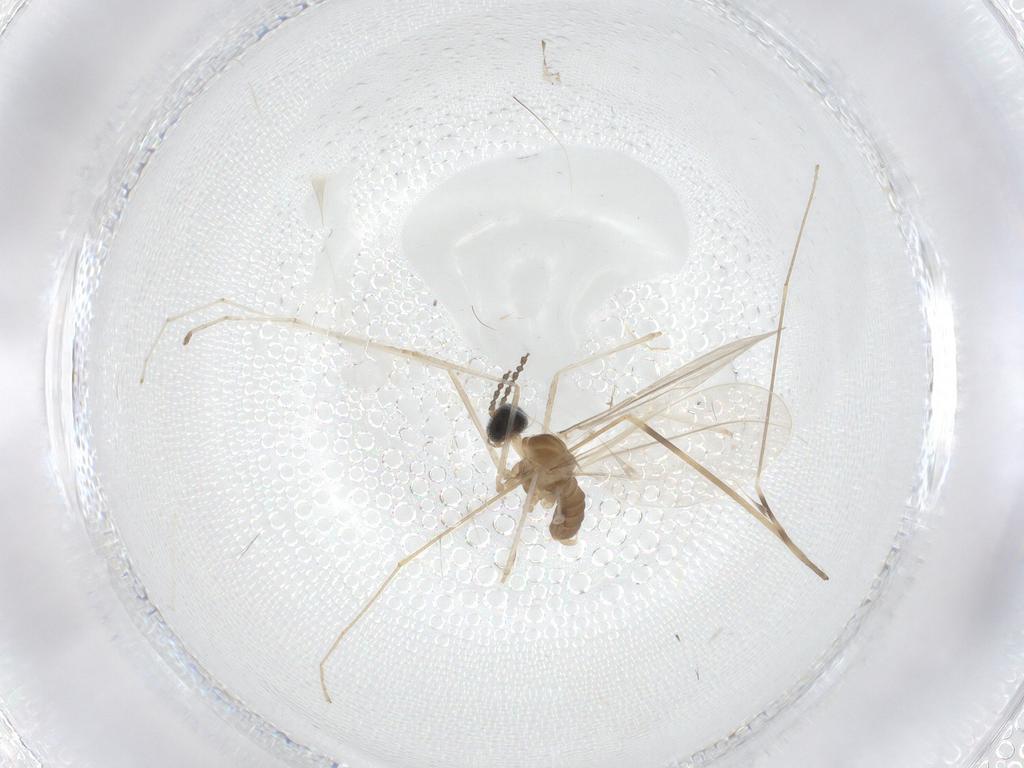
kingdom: Animalia
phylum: Arthropoda
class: Insecta
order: Diptera
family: Cecidomyiidae
